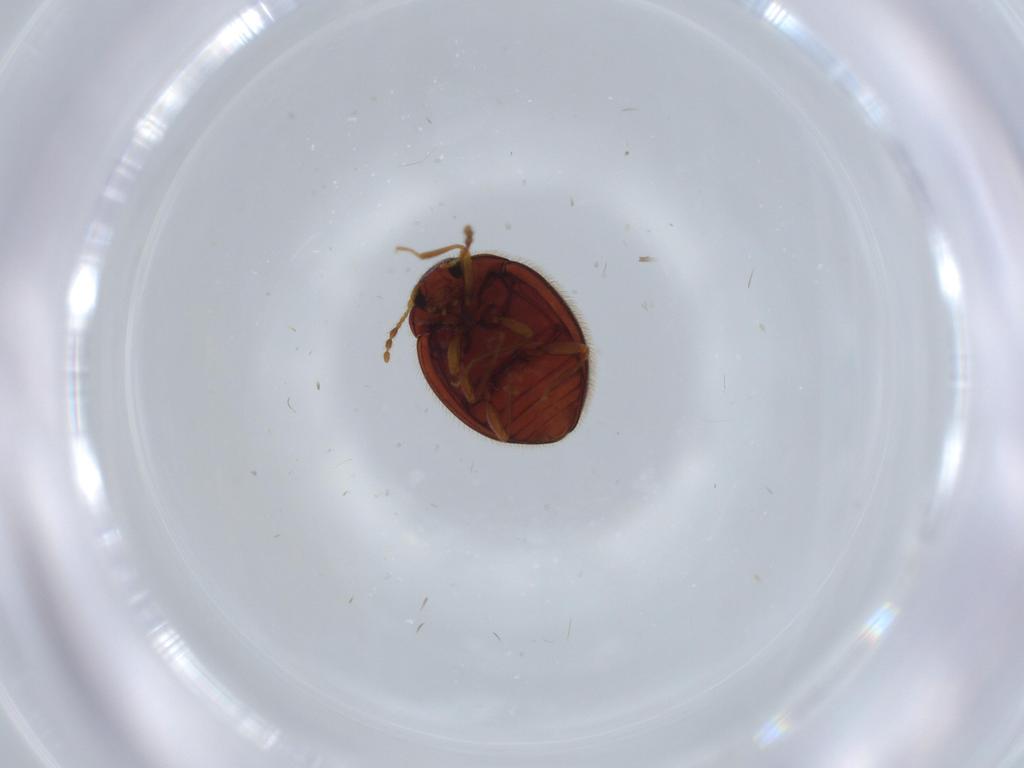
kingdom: Animalia
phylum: Arthropoda
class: Insecta
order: Coleoptera
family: Anamorphidae
